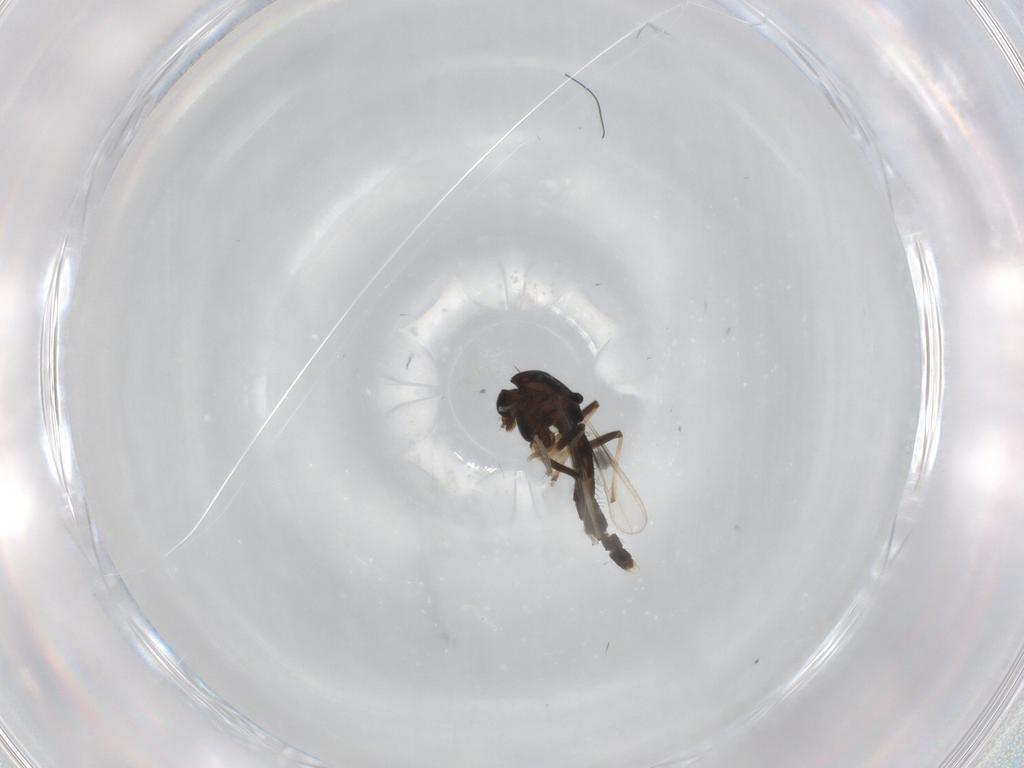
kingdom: Animalia
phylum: Arthropoda
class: Insecta
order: Diptera
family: Chironomidae
